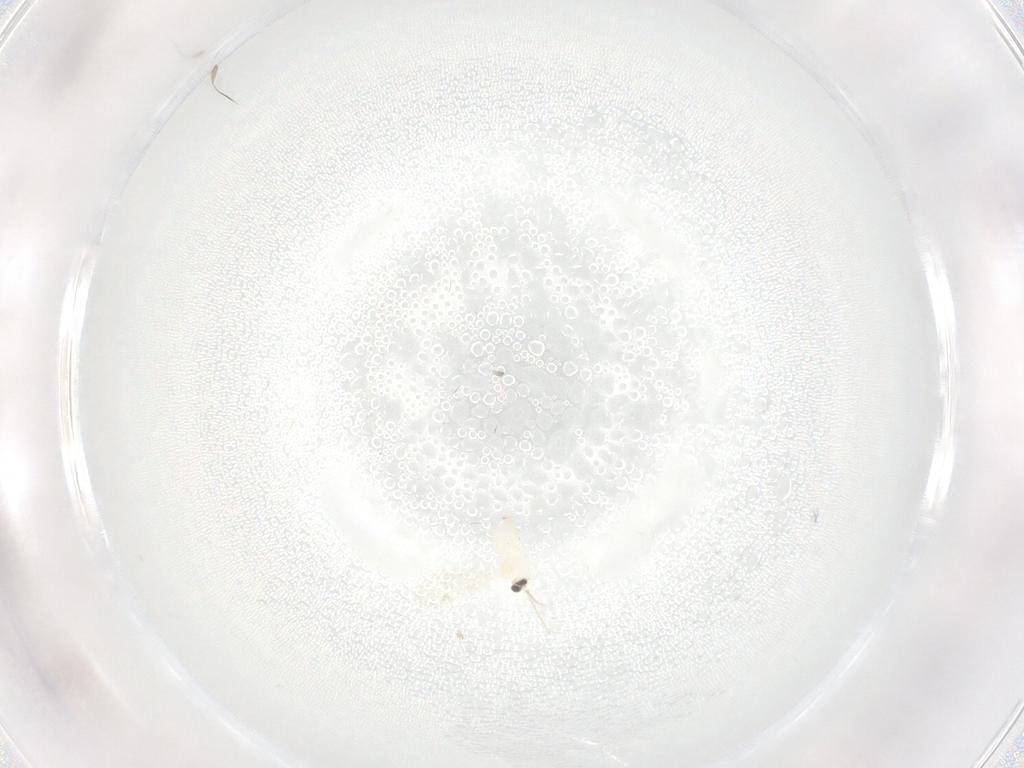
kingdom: Animalia
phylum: Arthropoda
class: Insecta
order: Diptera
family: Cecidomyiidae
